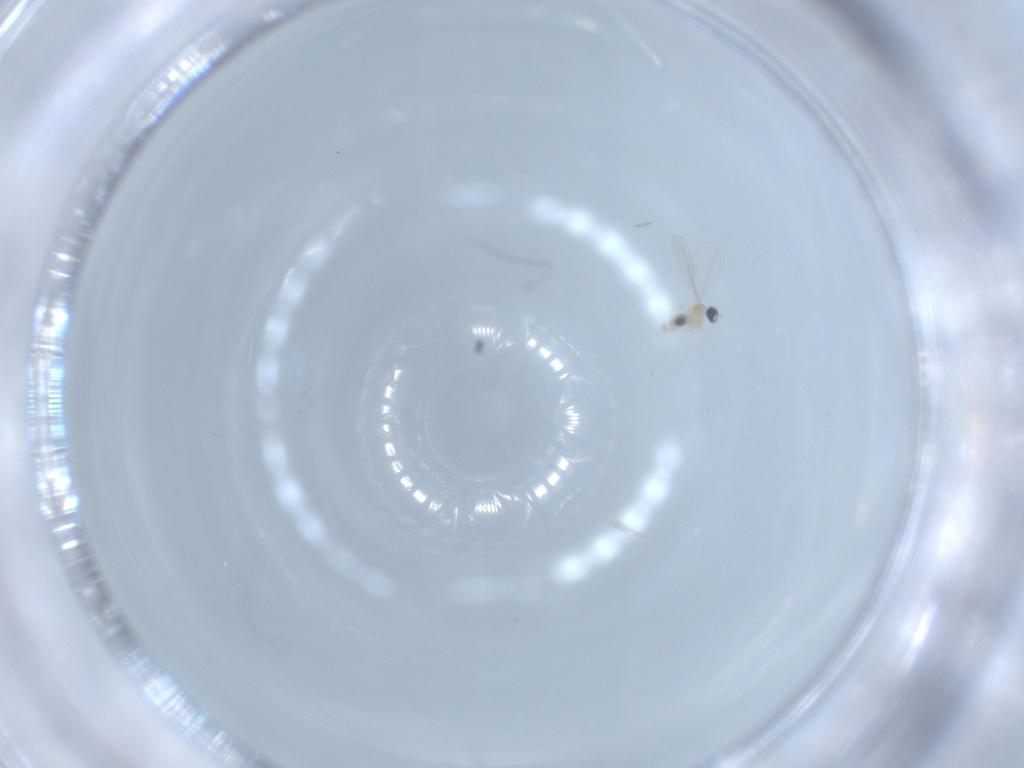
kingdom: Animalia
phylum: Arthropoda
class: Insecta
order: Diptera
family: Cecidomyiidae
